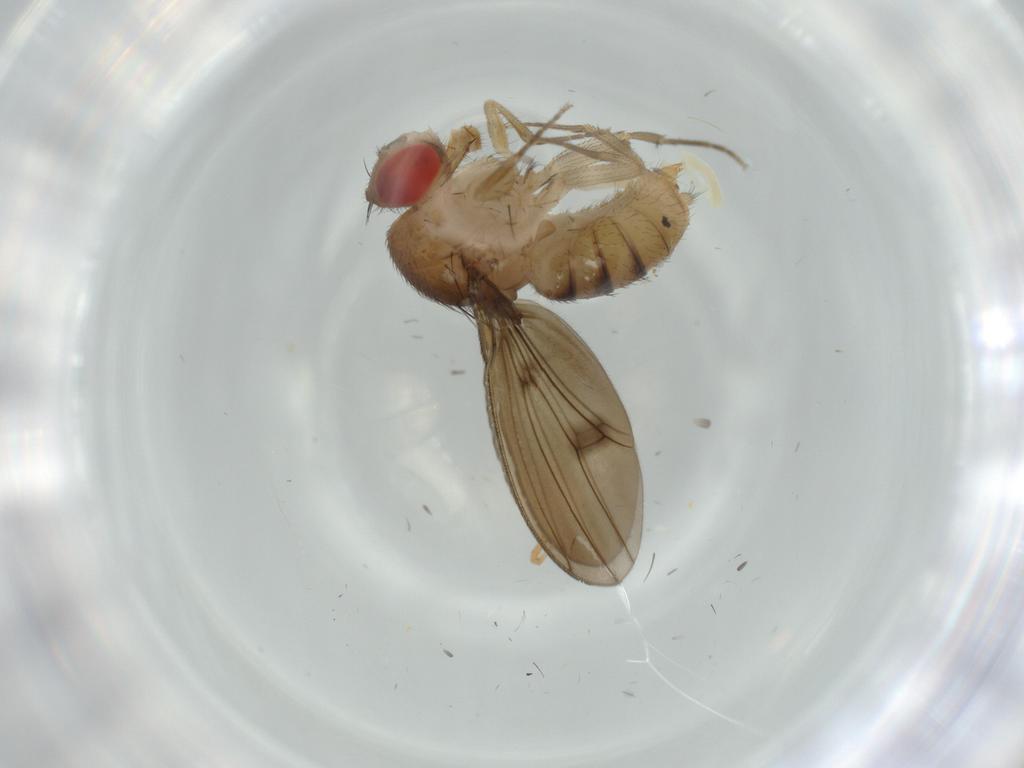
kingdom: Animalia
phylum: Arthropoda
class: Insecta
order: Diptera
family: Drosophilidae
